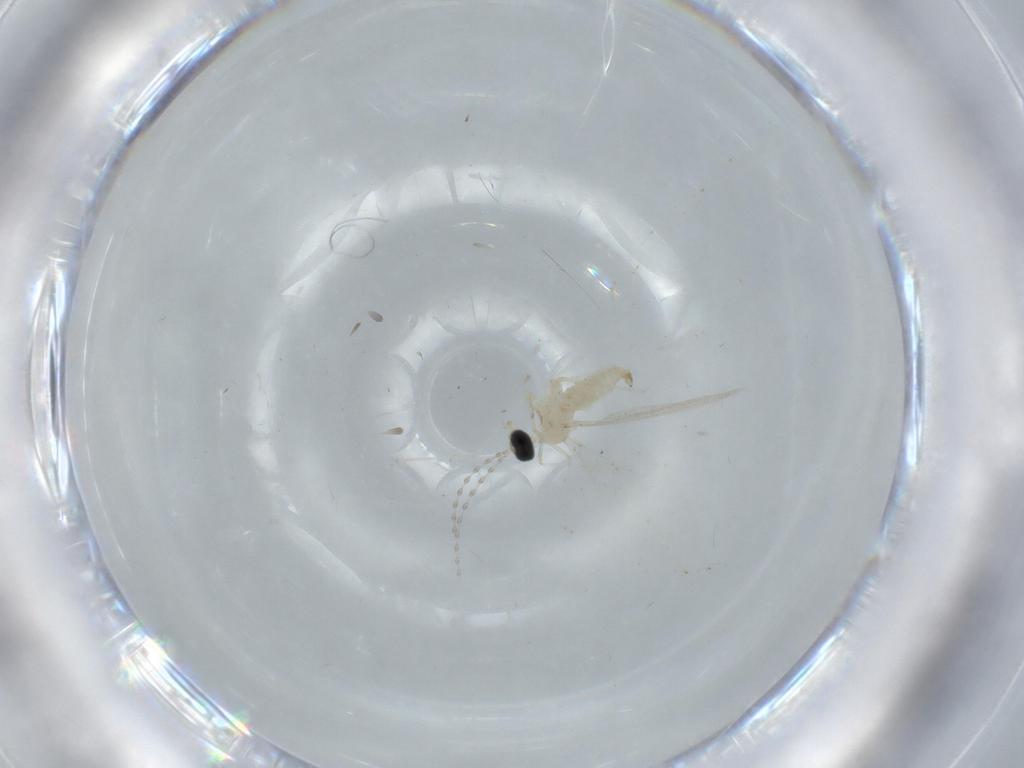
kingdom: Animalia
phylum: Arthropoda
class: Insecta
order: Diptera
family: Cecidomyiidae
